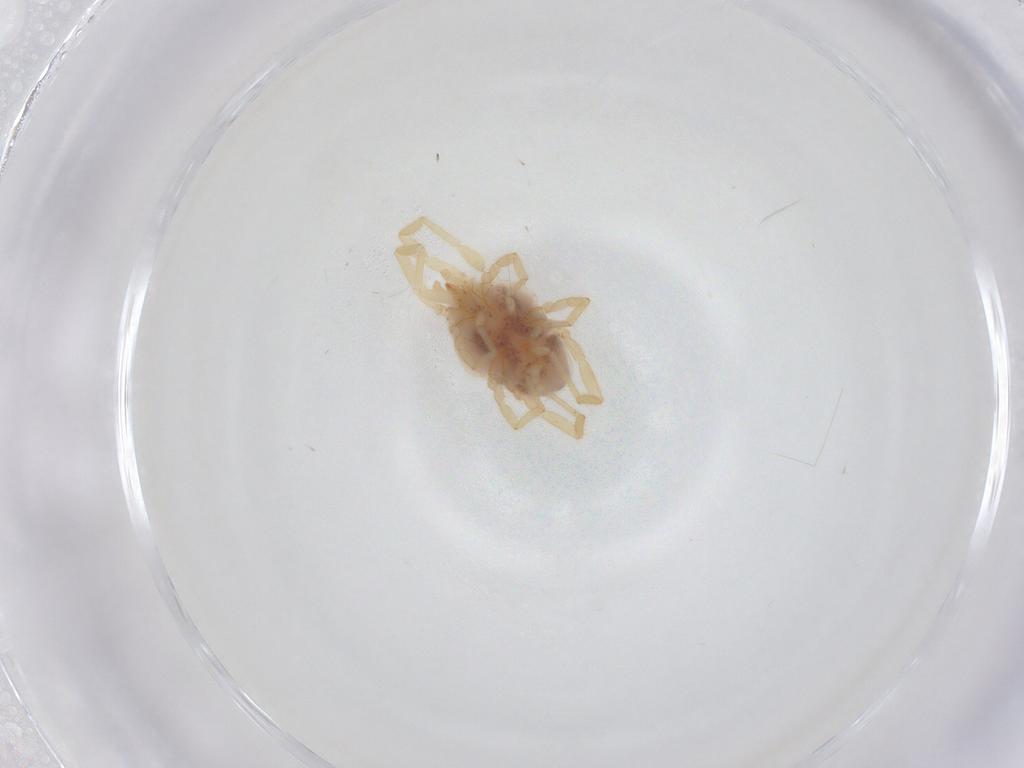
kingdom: Animalia
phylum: Arthropoda
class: Arachnida
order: Trombidiformes
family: Erythraeidae
